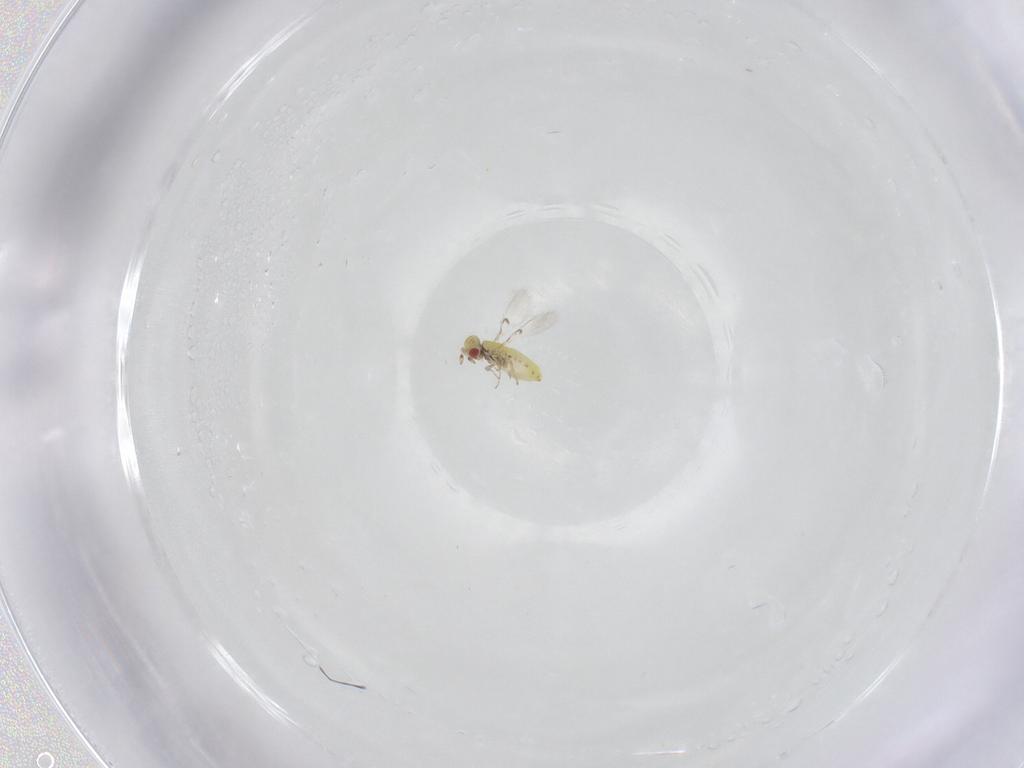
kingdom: Animalia
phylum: Arthropoda
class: Insecta
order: Hymenoptera
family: Trichogrammatidae
